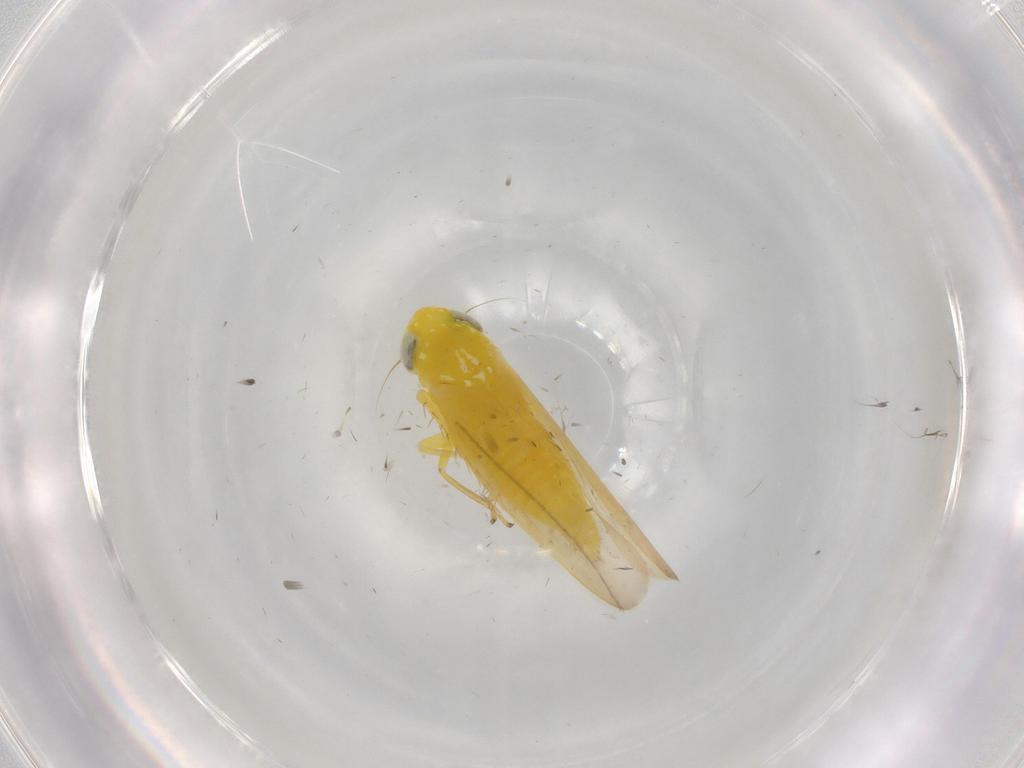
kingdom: Animalia
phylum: Arthropoda
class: Insecta
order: Hemiptera
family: Cicadellidae
